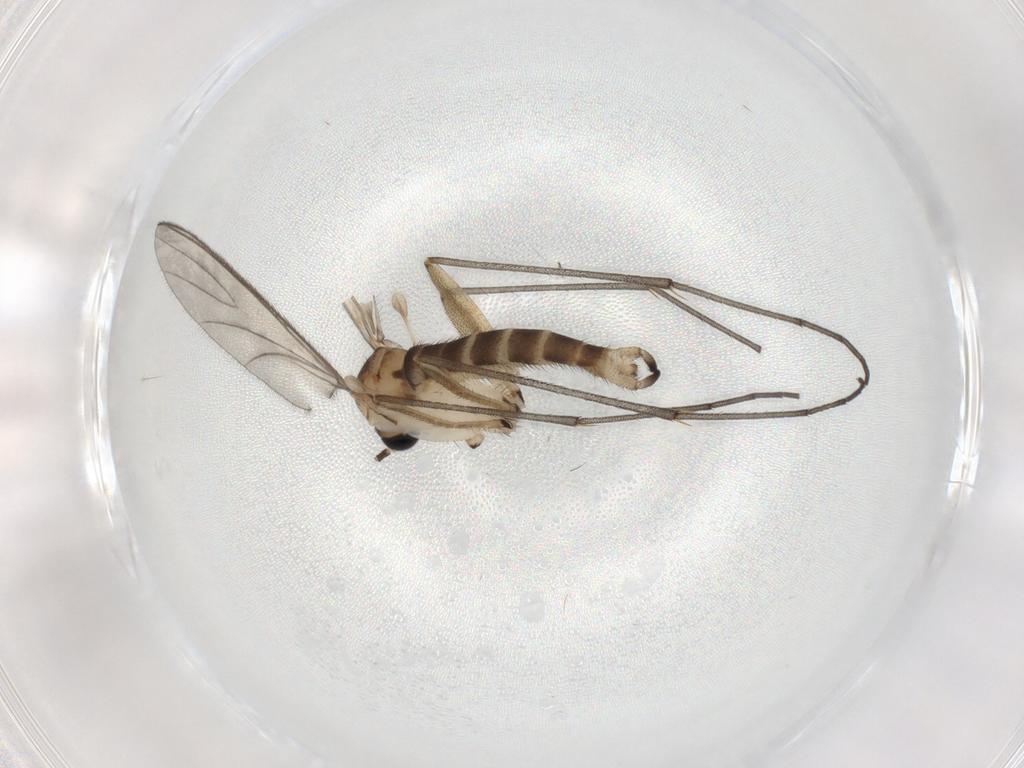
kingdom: Animalia
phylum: Arthropoda
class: Insecta
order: Diptera
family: Sciaridae
